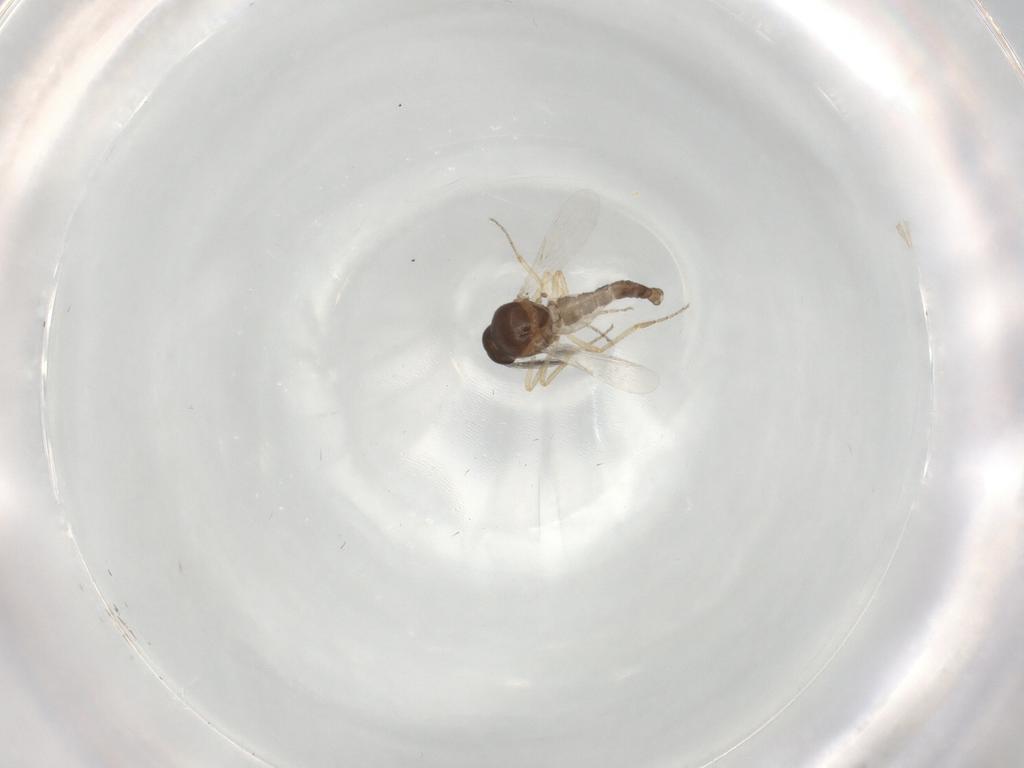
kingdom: Animalia
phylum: Arthropoda
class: Insecta
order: Diptera
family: Ceratopogonidae
